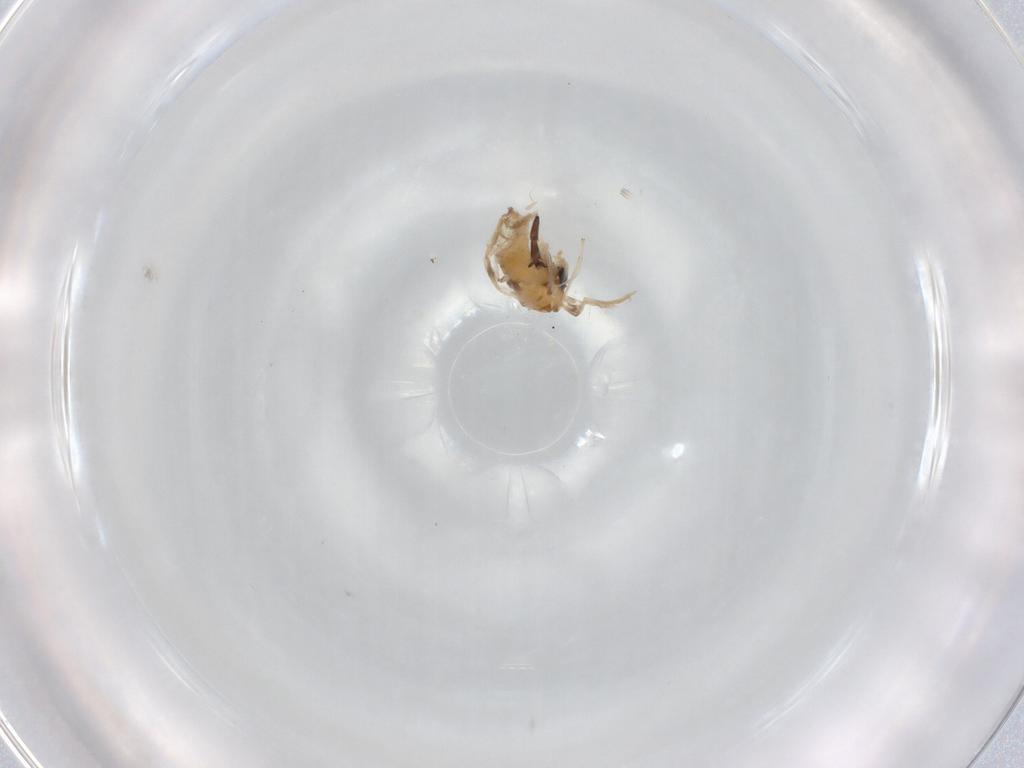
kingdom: Animalia
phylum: Arthropoda
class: Insecta
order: Diptera
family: Chironomidae
